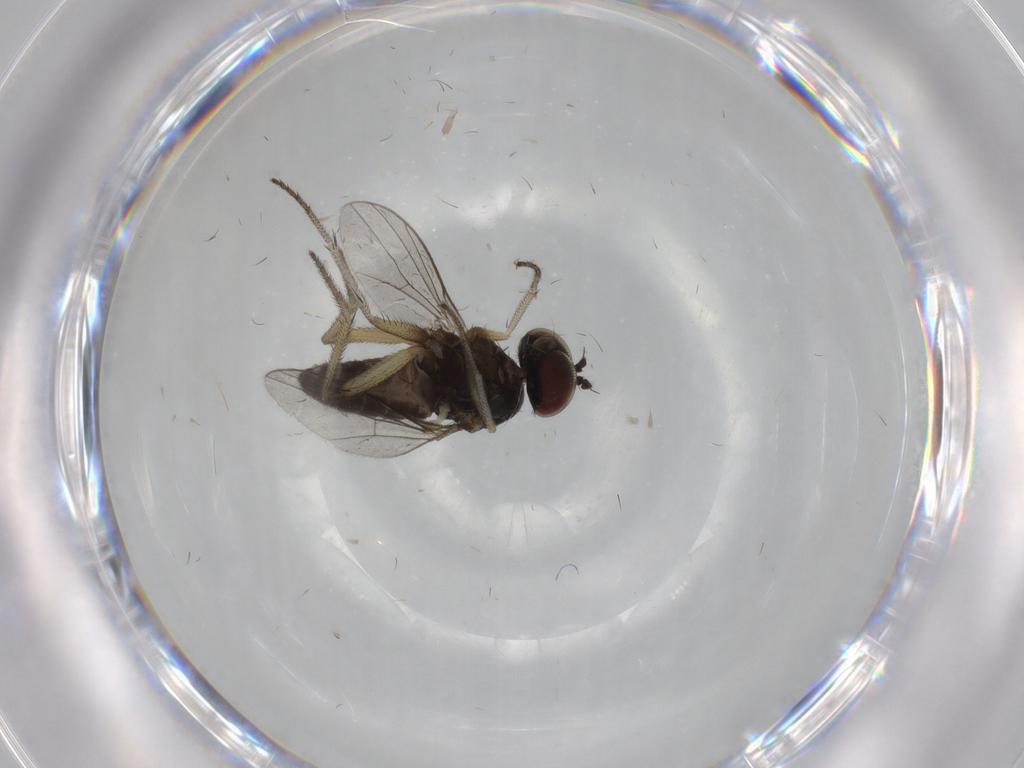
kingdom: Animalia
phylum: Arthropoda
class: Insecta
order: Diptera
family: Dolichopodidae
